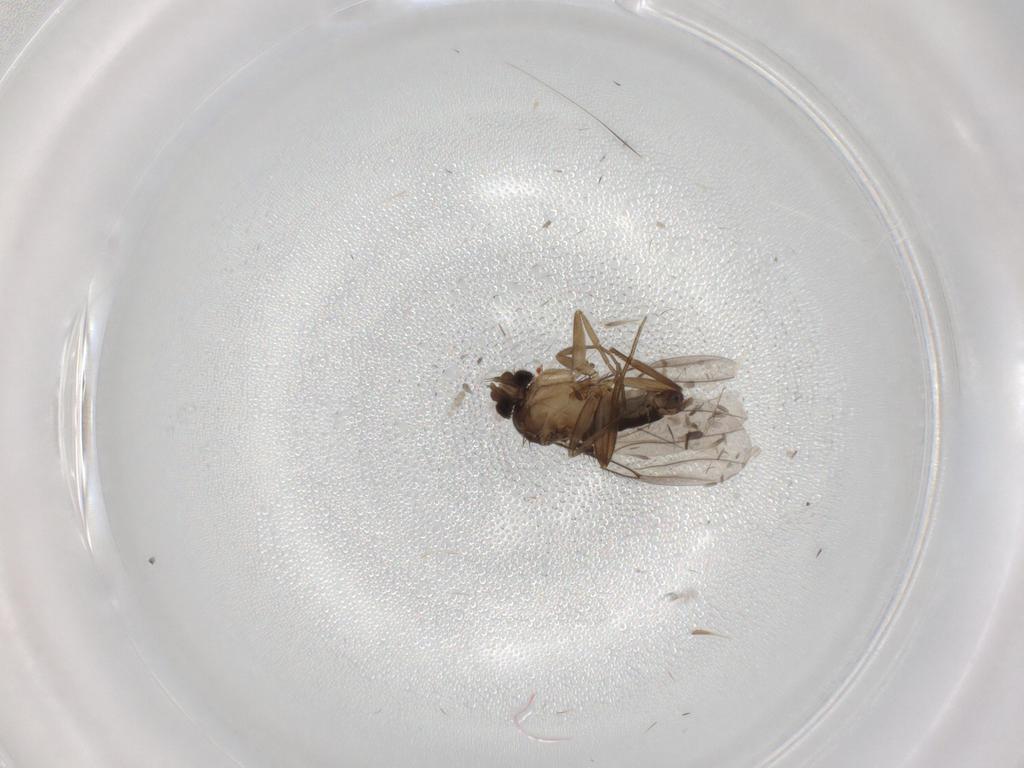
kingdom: Animalia
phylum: Arthropoda
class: Insecta
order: Diptera
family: Phoridae
